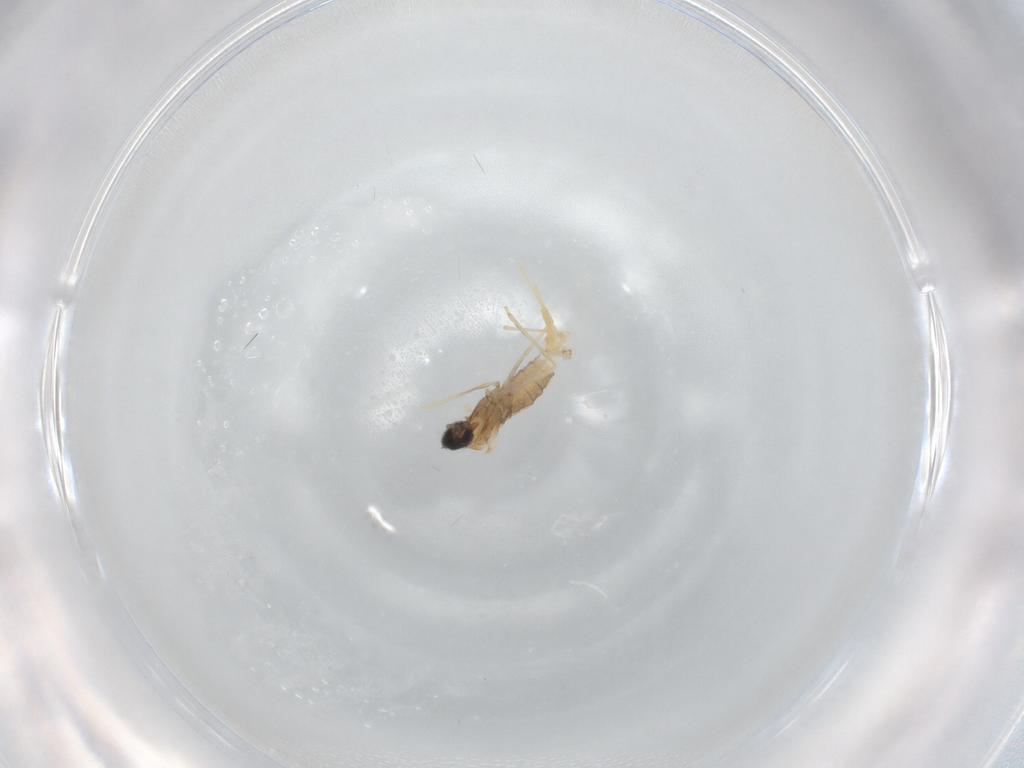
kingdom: Animalia
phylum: Arthropoda
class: Insecta
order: Diptera
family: Cecidomyiidae
